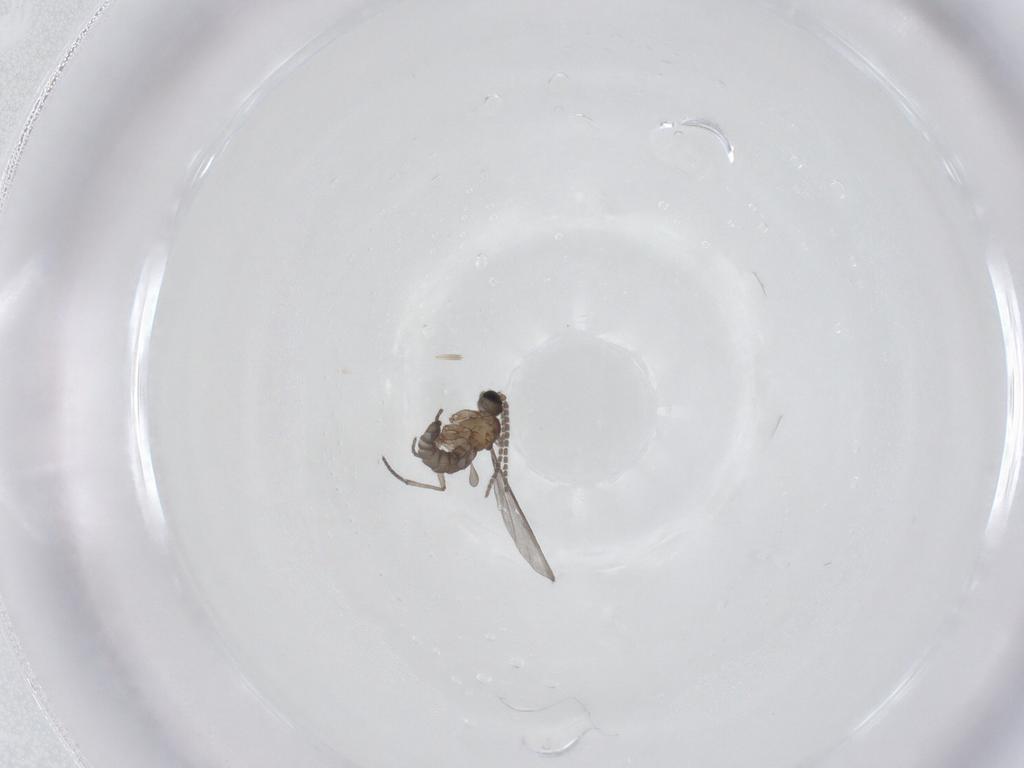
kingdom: Animalia
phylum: Arthropoda
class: Insecta
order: Diptera
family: Sciaridae
